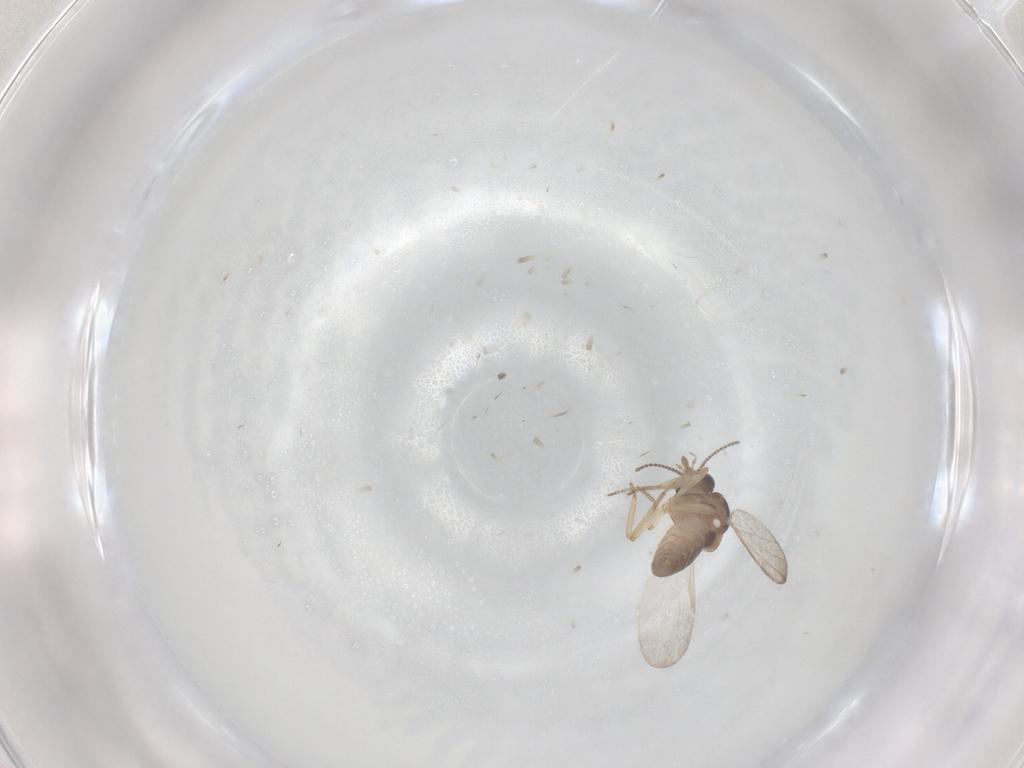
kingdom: Animalia
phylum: Arthropoda
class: Insecta
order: Diptera
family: Ceratopogonidae
